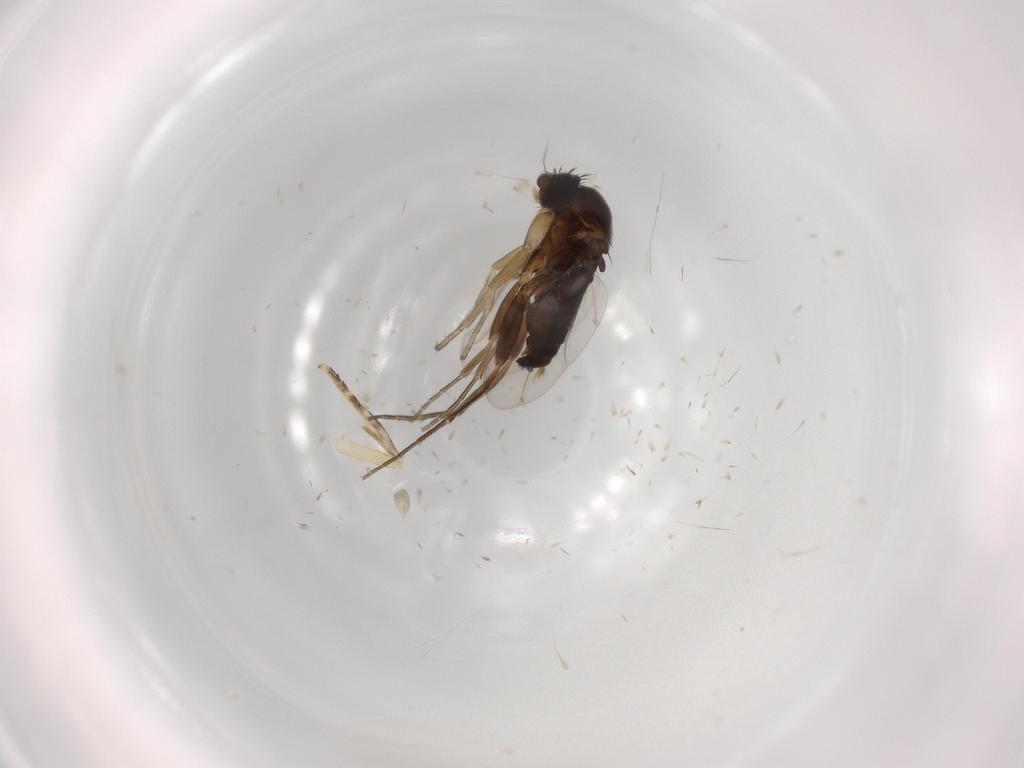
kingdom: Animalia
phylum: Arthropoda
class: Insecta
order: Diptera
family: Phoridae
